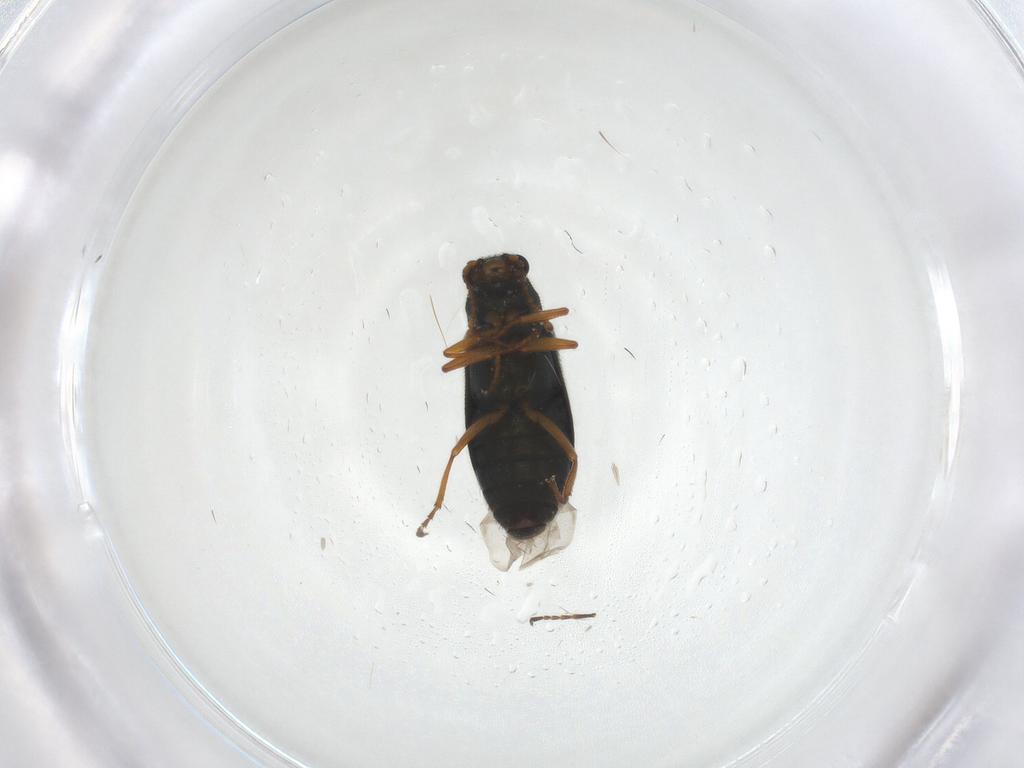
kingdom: Animalia
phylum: Arthropoda
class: Insecta
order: Coleoptera
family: Melyridae
